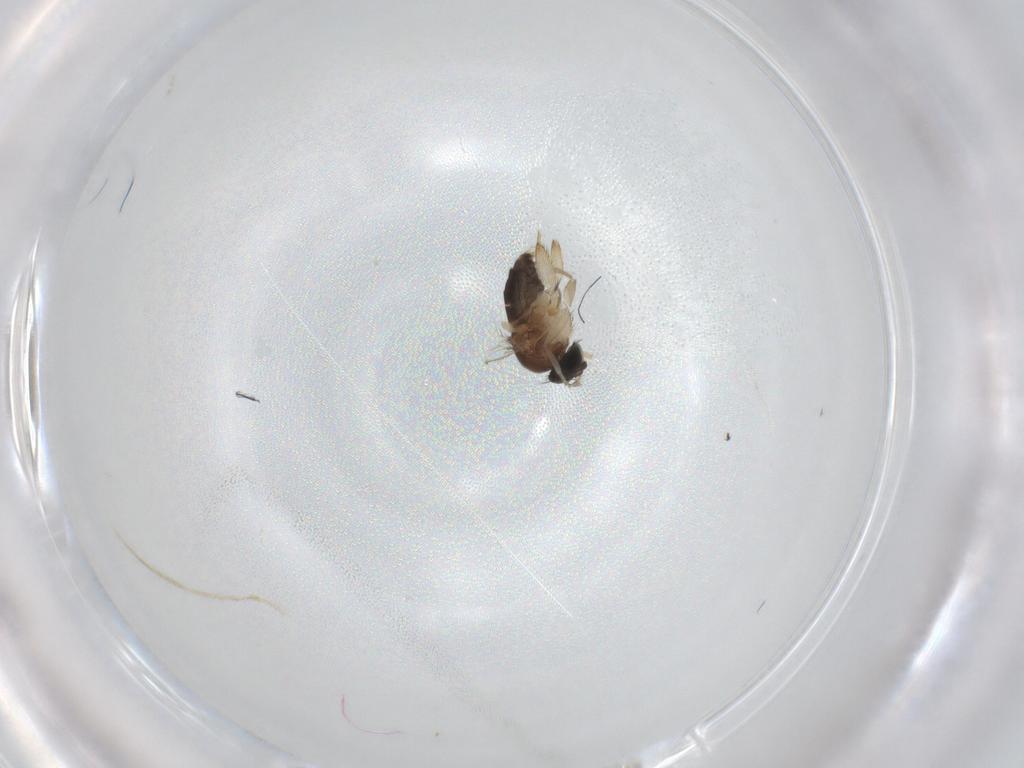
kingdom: Animalia
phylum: Arthropoda
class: Insecta
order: Diptera
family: Phoridae
